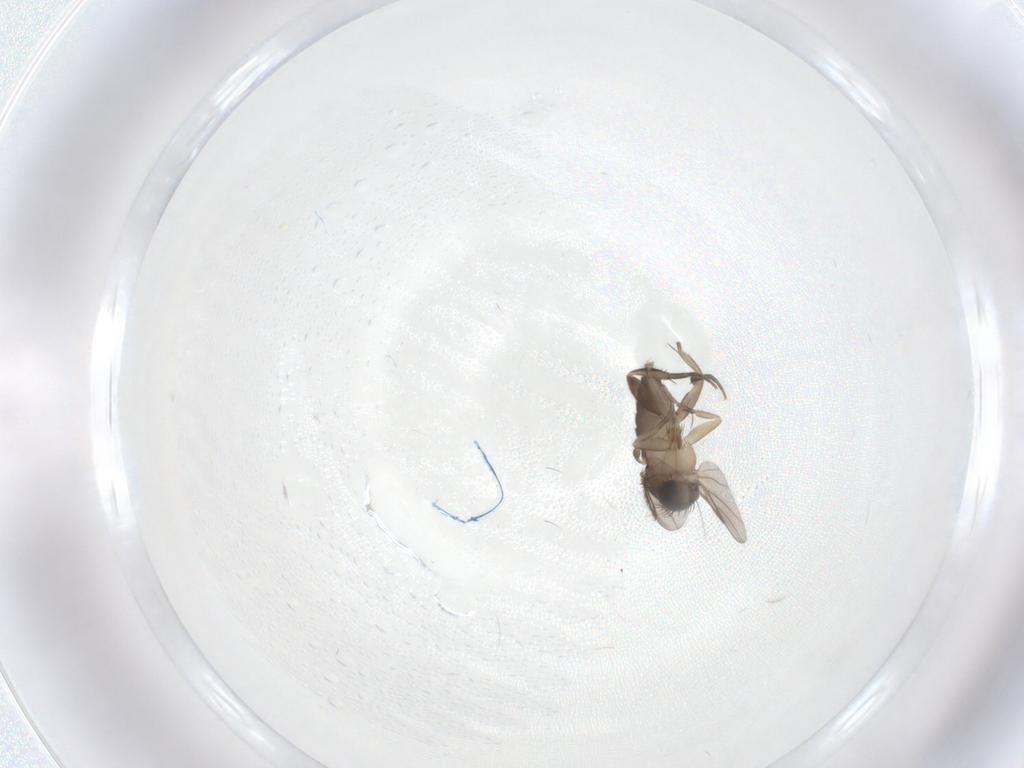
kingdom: Animalia
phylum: Arthropoda
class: Insecta
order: Diptera
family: Phoridae
